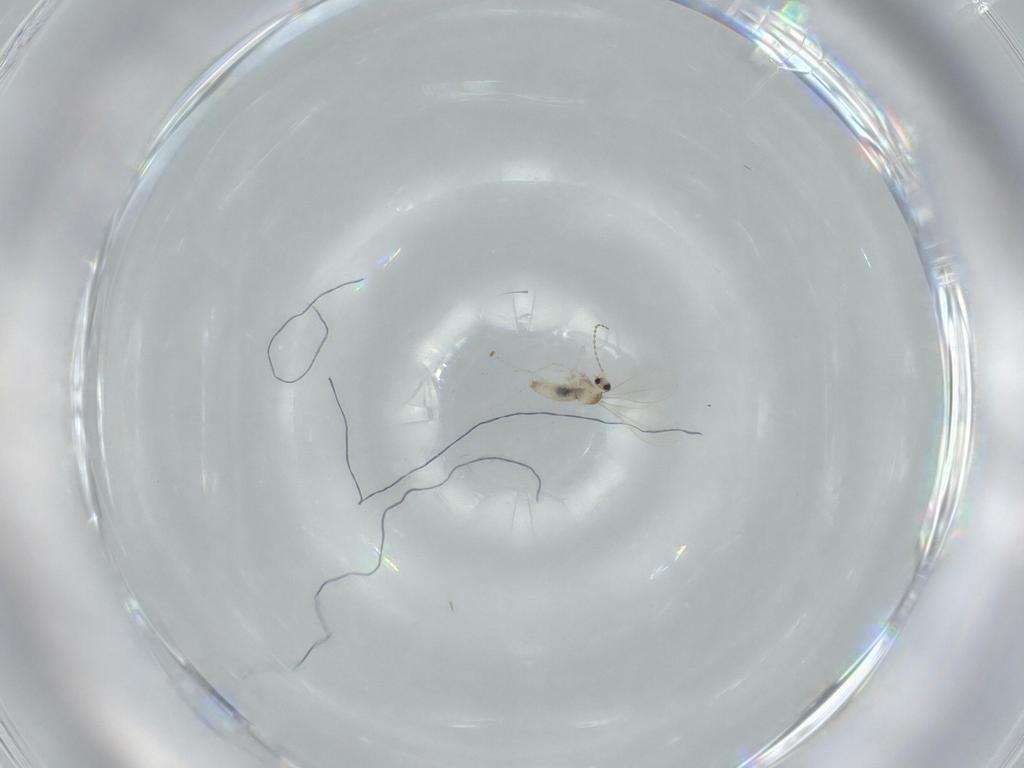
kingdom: Animalia
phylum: Arthropoda
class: Insecta
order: Diptera
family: Cecidomyiidae
